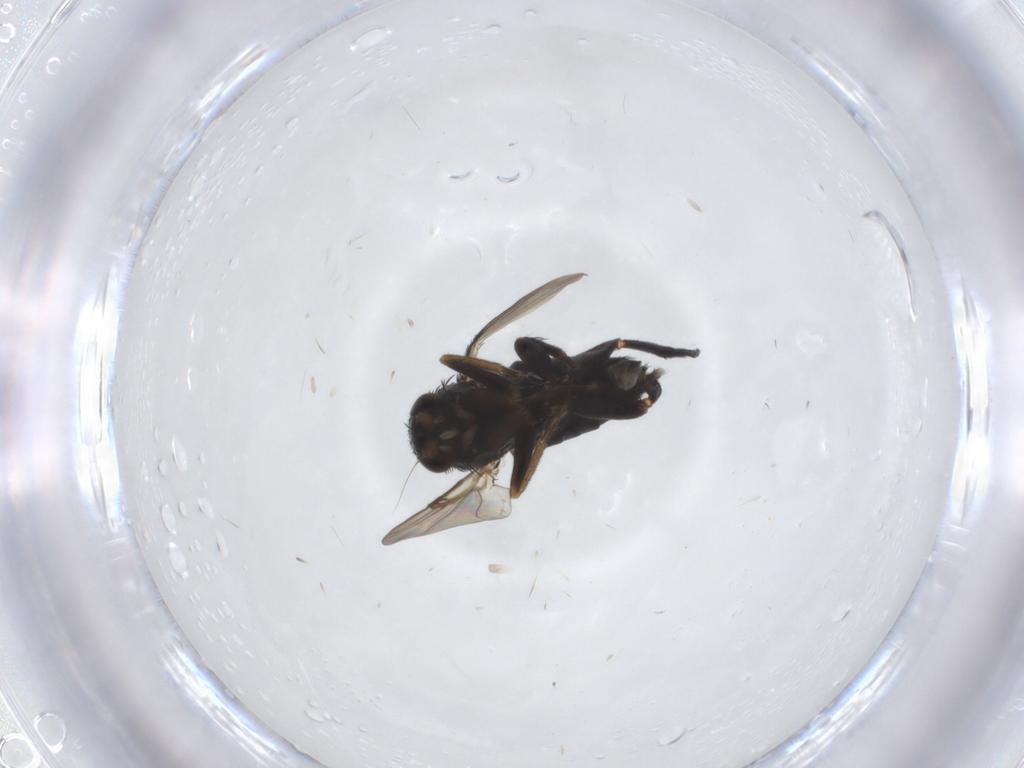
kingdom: Animalia
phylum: Arthropoda
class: Insecta
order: Diptera
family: Phoridae
